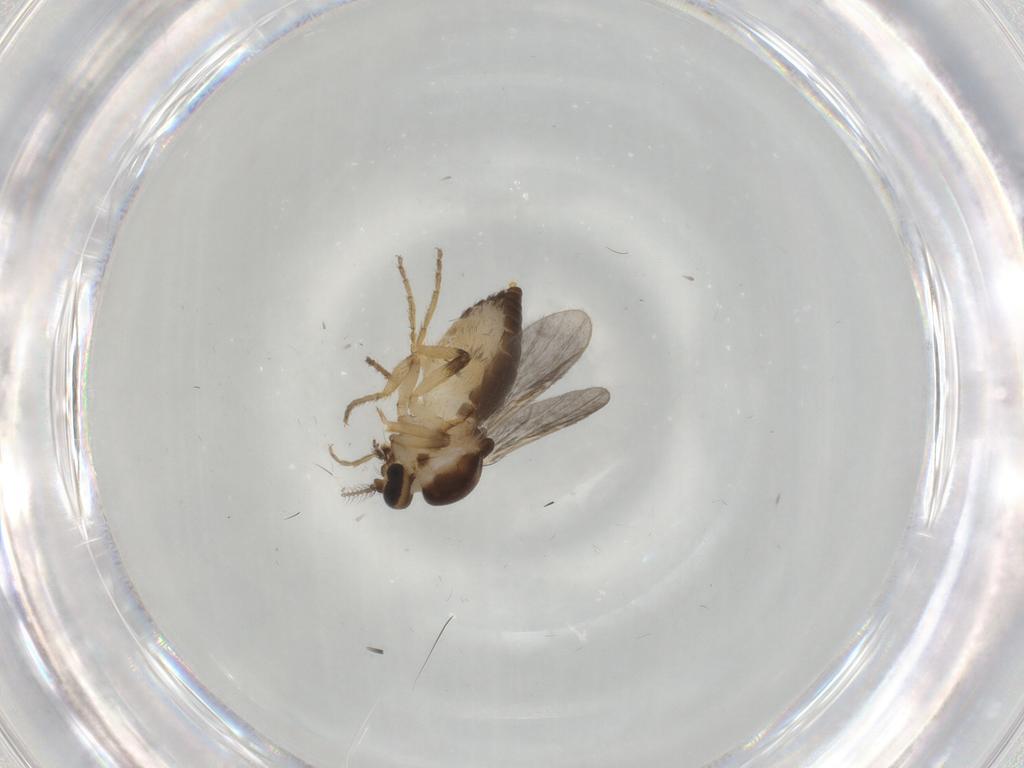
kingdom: Animalia
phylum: Arthropoda
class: Insecta
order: Diptera
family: Ceratopogonidae
